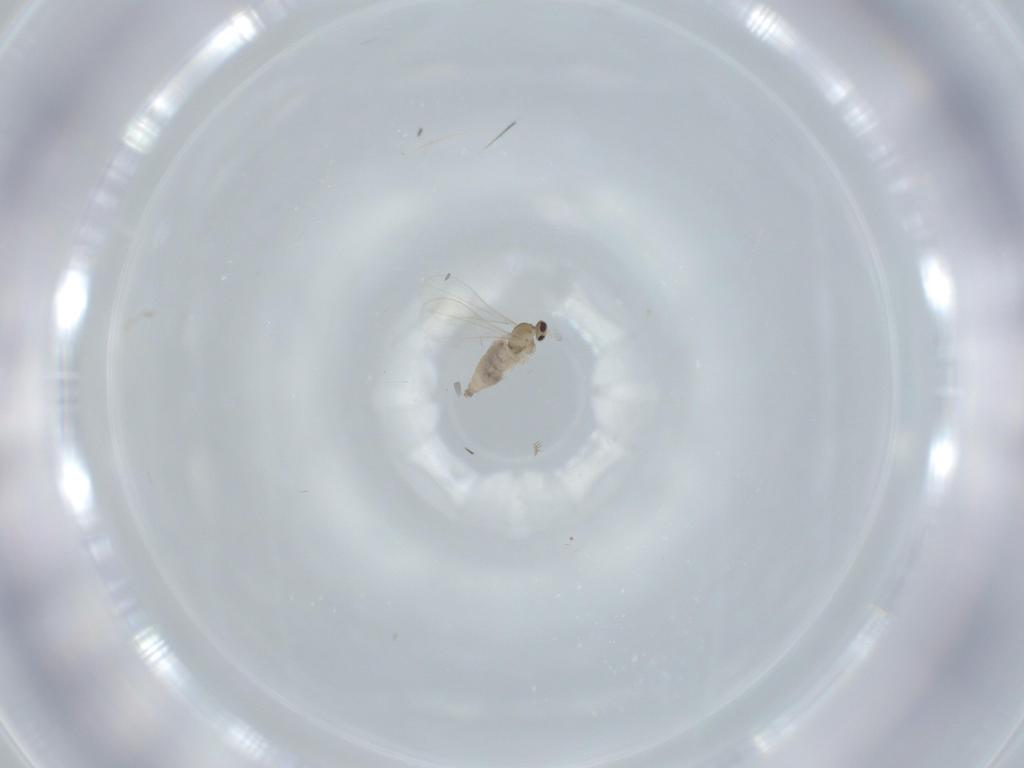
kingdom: Animalia
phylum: Arthropoda
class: Insecta
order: Diptera
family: Cecidomyiidae
